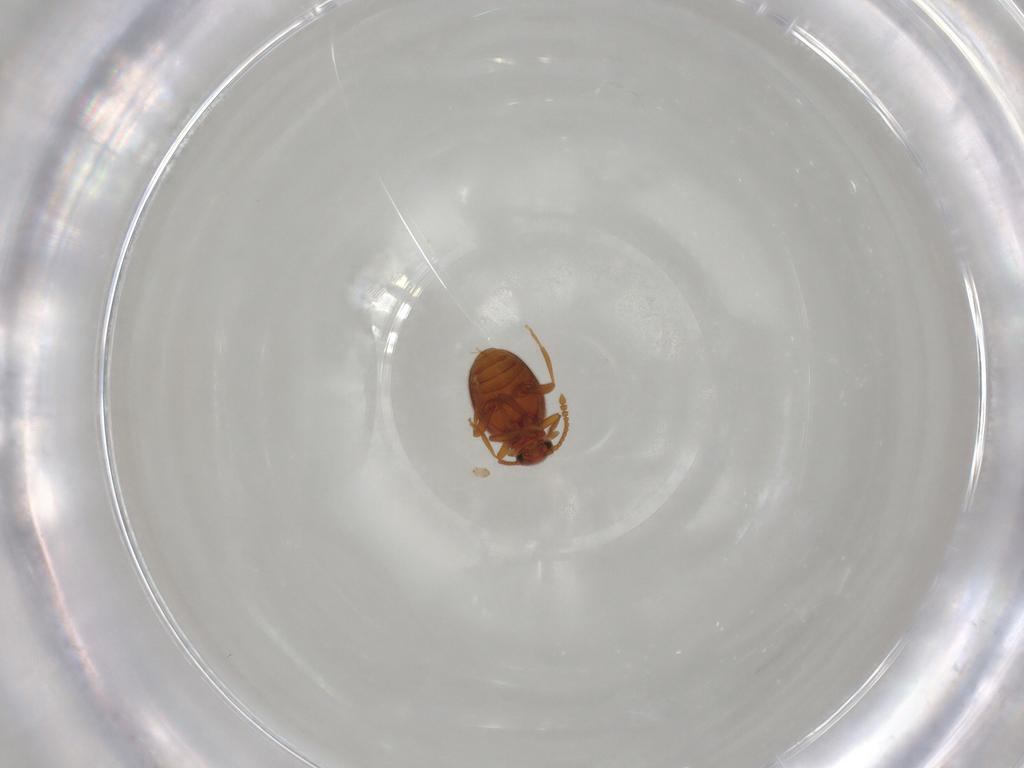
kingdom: Animalia
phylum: Arthropoda
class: Insecta
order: Coleoptera
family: Aderidae
